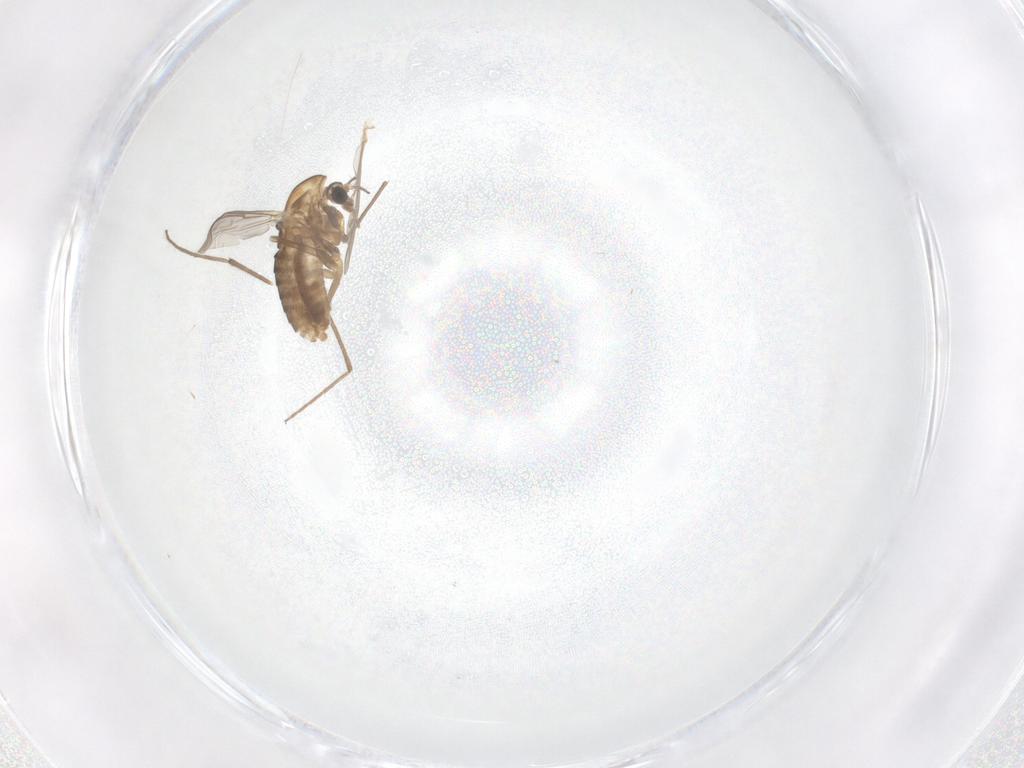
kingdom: Animalia
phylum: Arthropoda
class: Insecta
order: Diptera
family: Chironomidae
